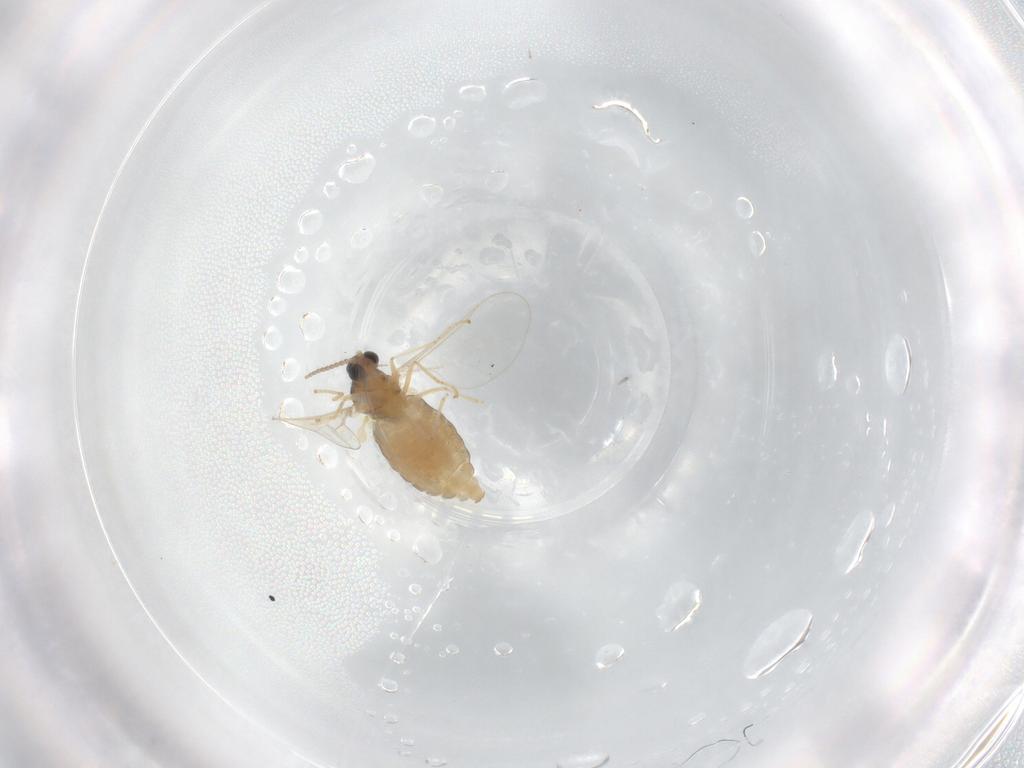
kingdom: Animalia
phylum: Arthropoda
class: Insecta
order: Diptera
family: Cecidomyiidae
